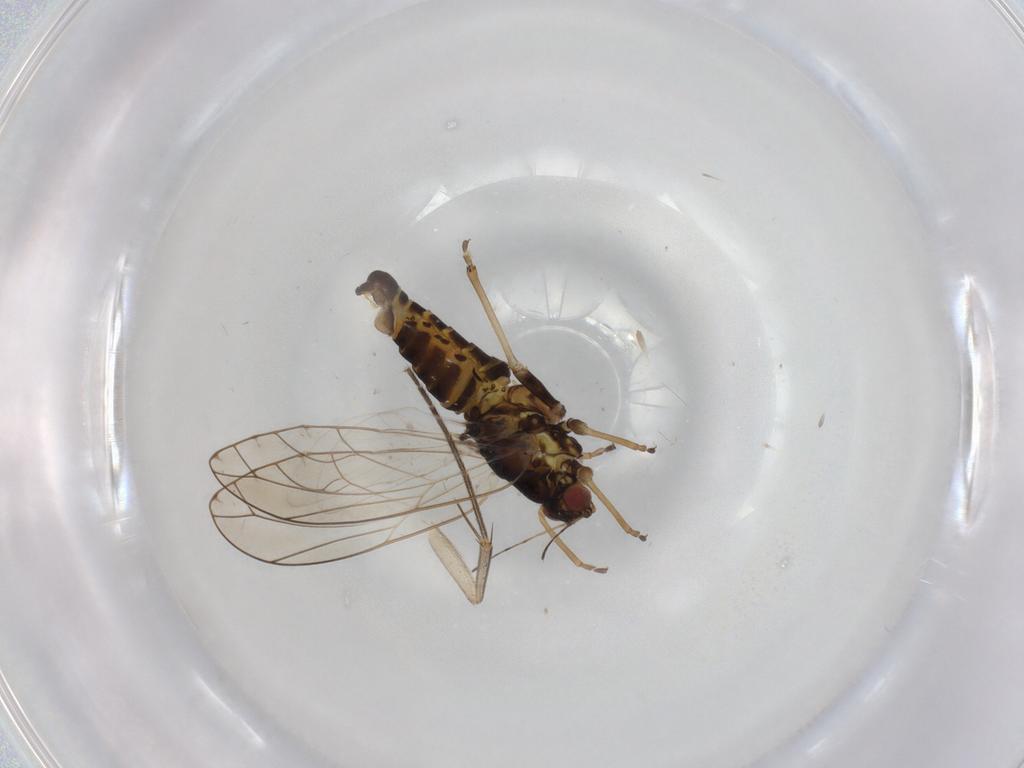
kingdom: Animalia
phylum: Arthropoda
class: Insecta
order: Hemiptera
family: Triozidae
